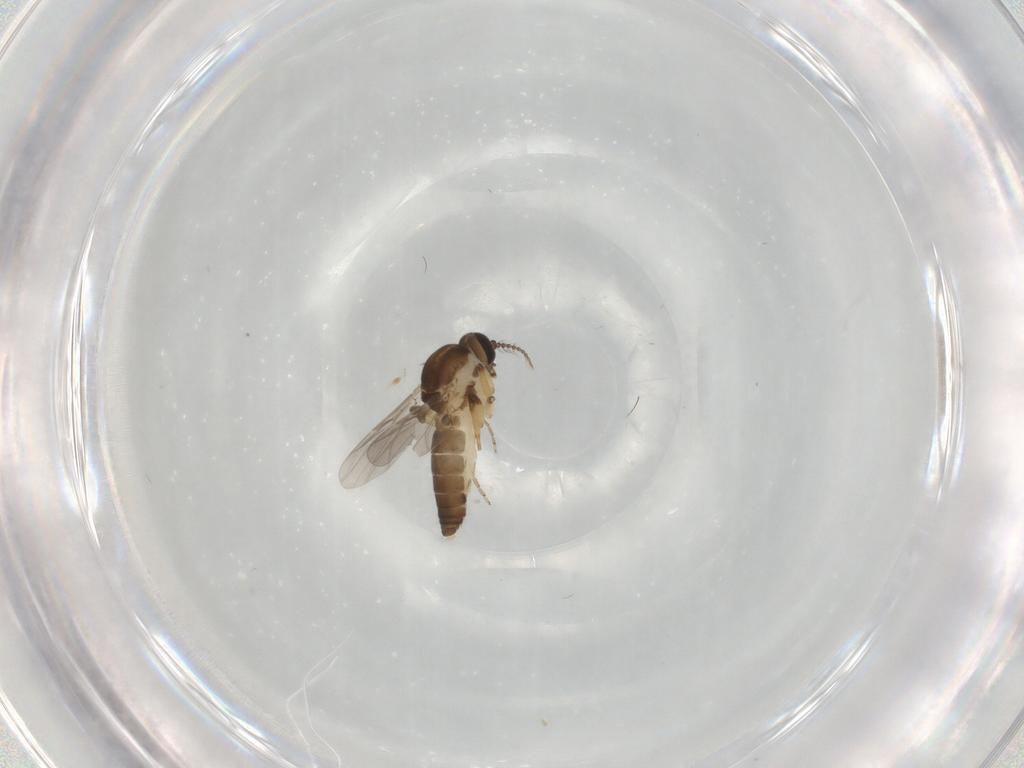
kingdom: Animalia
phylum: Arthropoda
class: Insecta
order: Diptera
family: Ceratopogonidae
